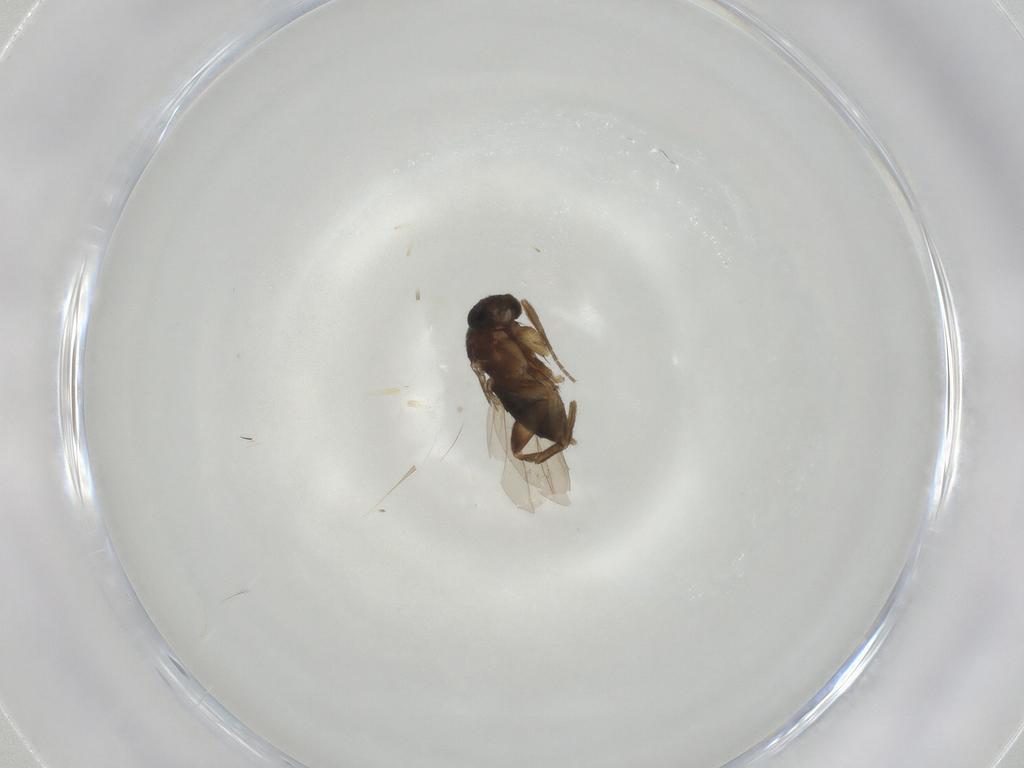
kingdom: Animalia
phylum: Arthropoda
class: Insecta
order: Diptera
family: Phoridae
